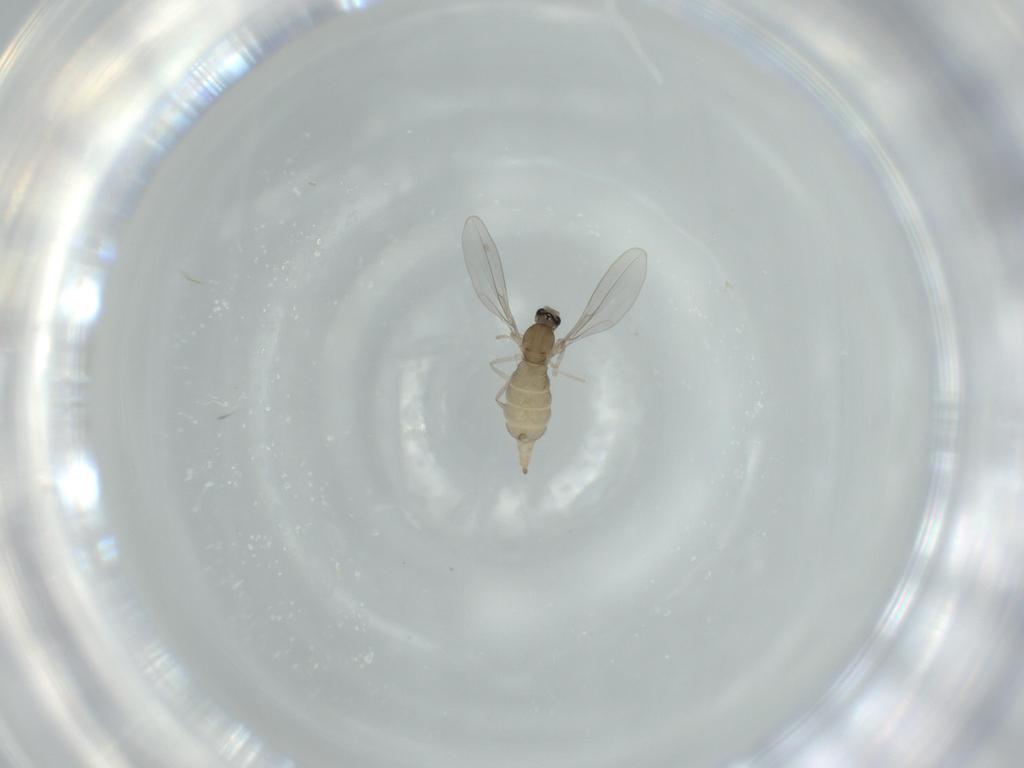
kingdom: Animalia
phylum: Arthropoda
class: Insecta
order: Diptera
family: Cecidomyiidae
